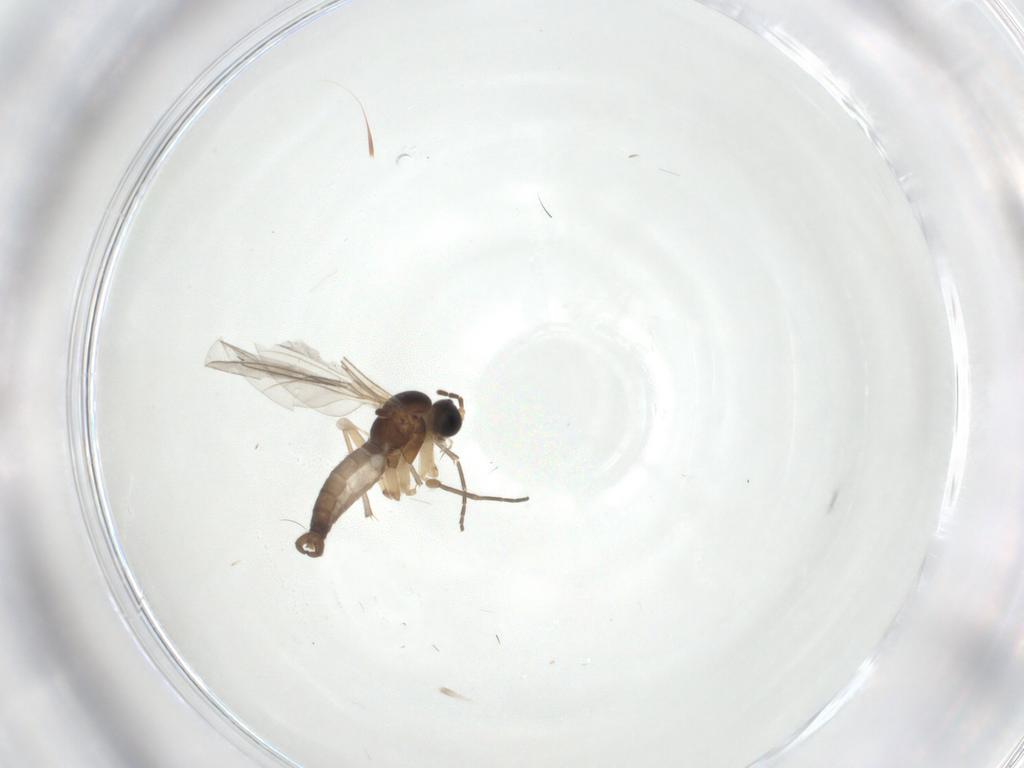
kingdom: Animalia
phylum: Arthropoda
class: Insecta
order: Diptera
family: Sciaridae
